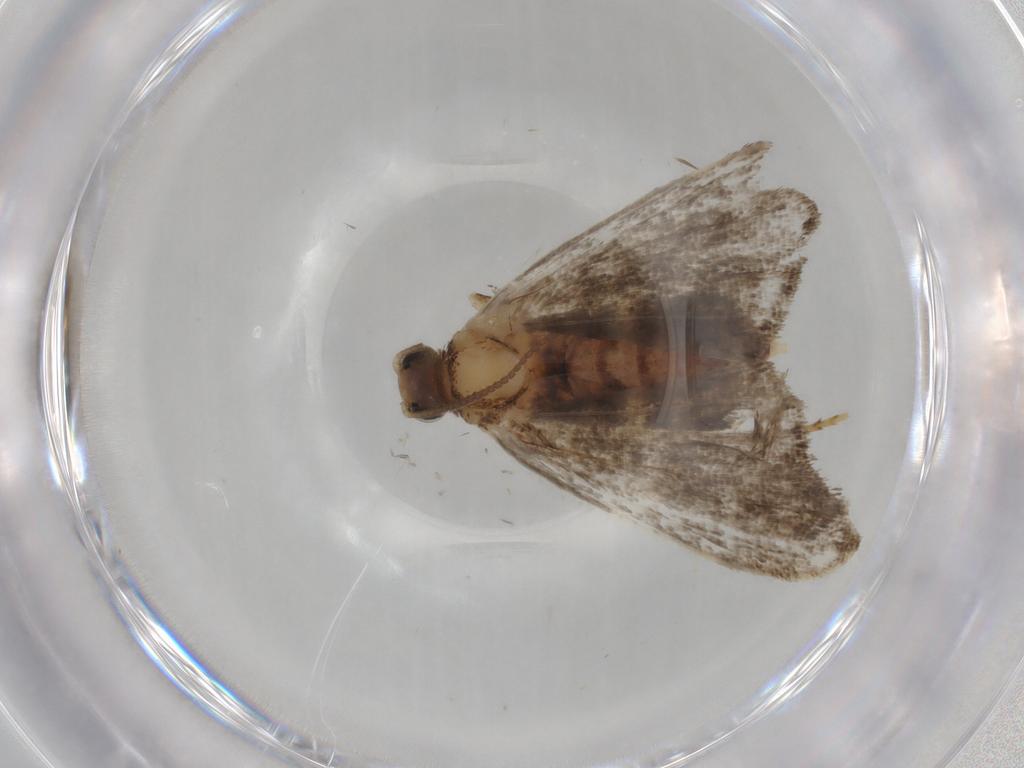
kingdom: Animalia
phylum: Arthropoda
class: Insecta
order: Lepidoptera
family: Crambidae
